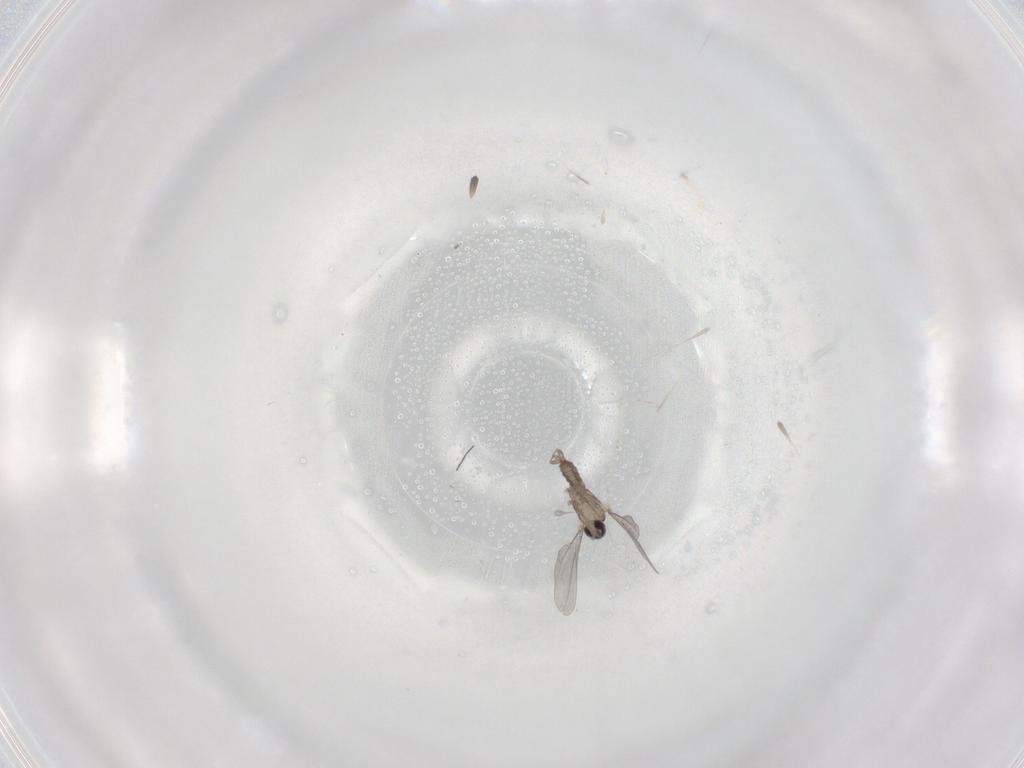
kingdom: Animalia
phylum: Arthropoda
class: Insecta
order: Diptera
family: Cecidomyiidae
